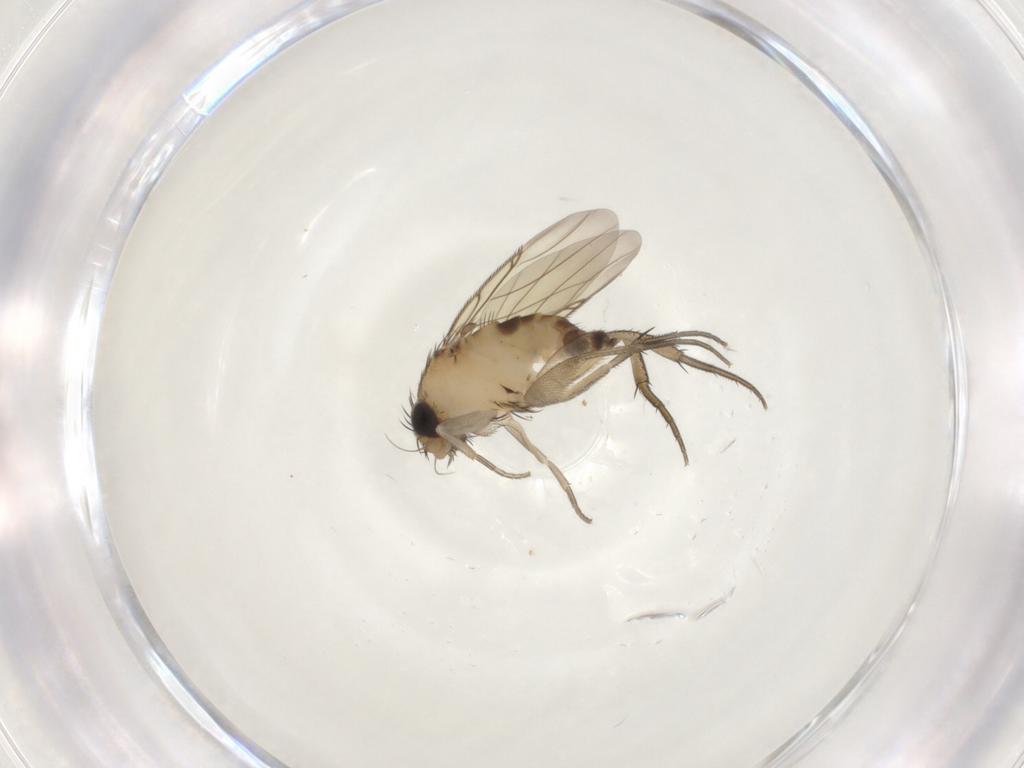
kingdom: Animalia
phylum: Arthropoda
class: Insecta
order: Diptera
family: Phoridae
